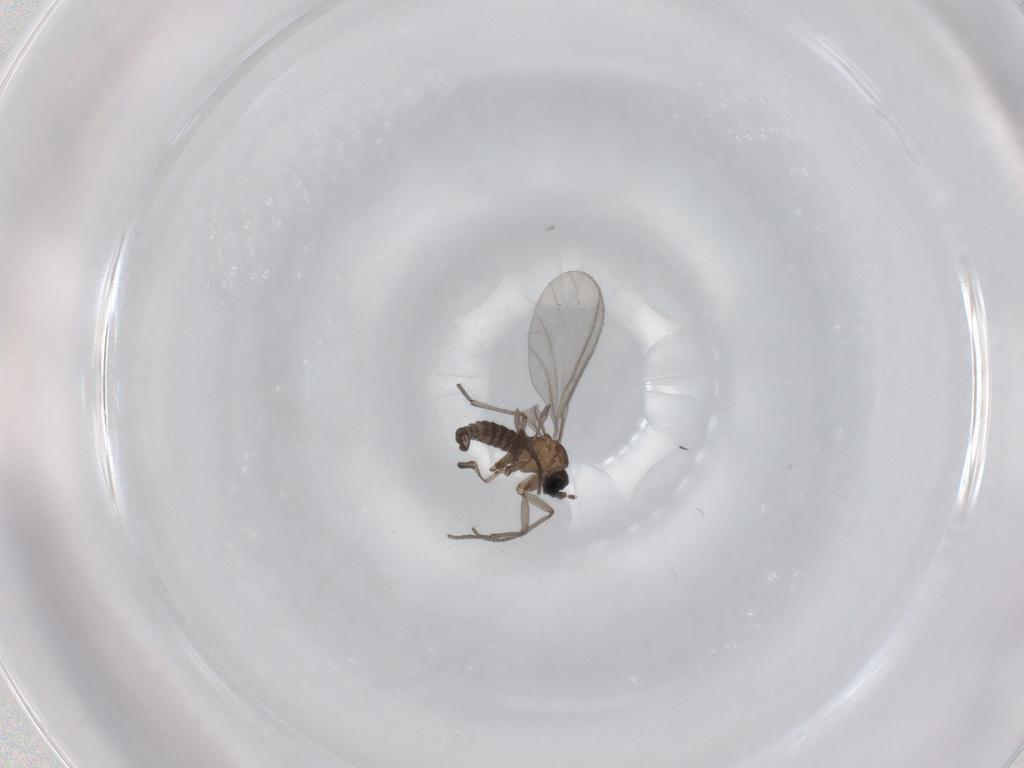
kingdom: Animalia
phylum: Arthropoda
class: Insecta
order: Diptera
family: Sciaridae
